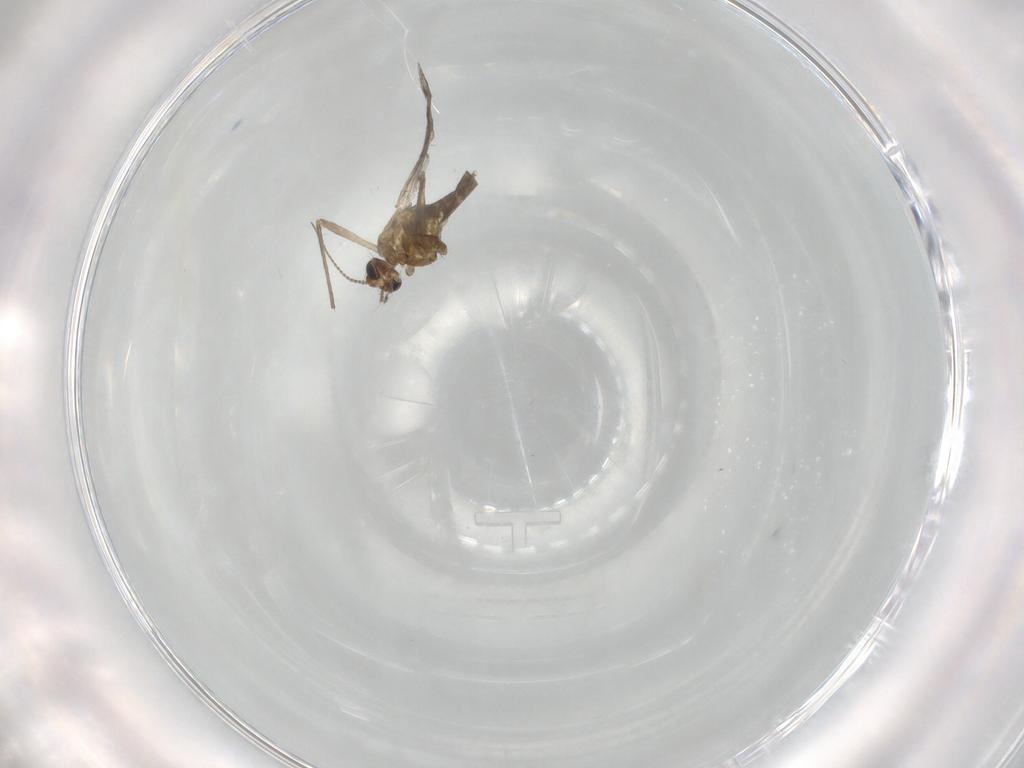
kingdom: Animalia
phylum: Arthropoda
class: Insecta
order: Diptera
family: Chironomidae
